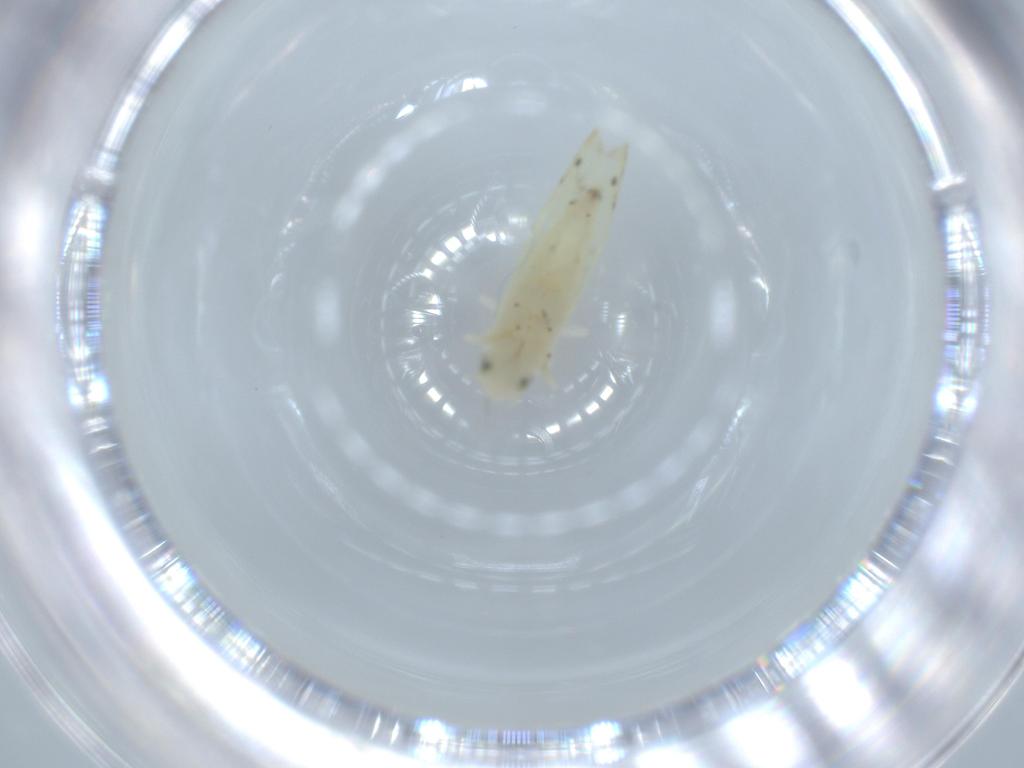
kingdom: Animalia
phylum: Arthropoda
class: Insecta
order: Hemiptera
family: Cicadellidae
